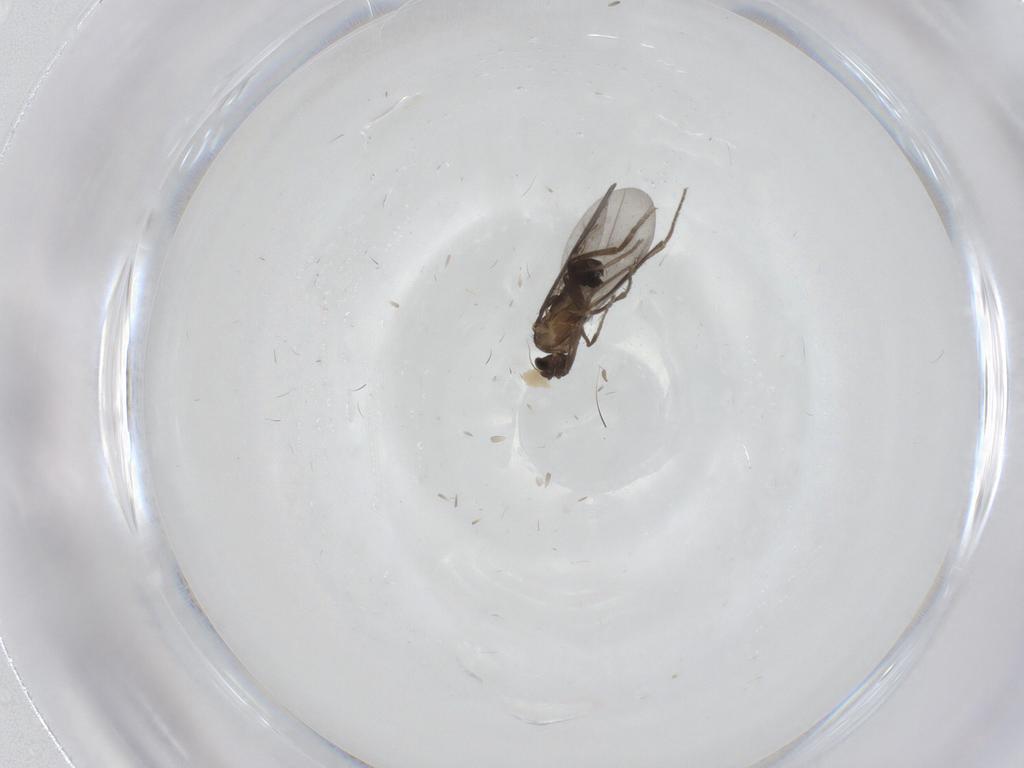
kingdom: Animalia
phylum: Arthropoda
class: Insecta
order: Diptera
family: Phoridae
